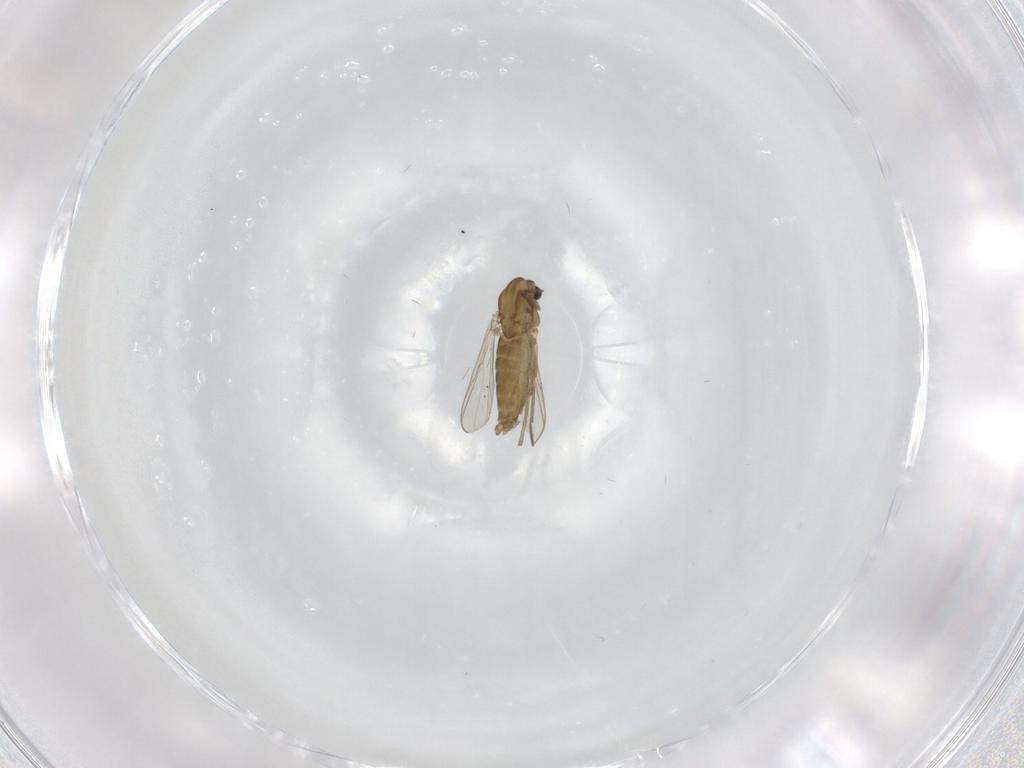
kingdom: Animalia
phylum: Arthropoda
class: Insecta
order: Diptera
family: Chironomidae
